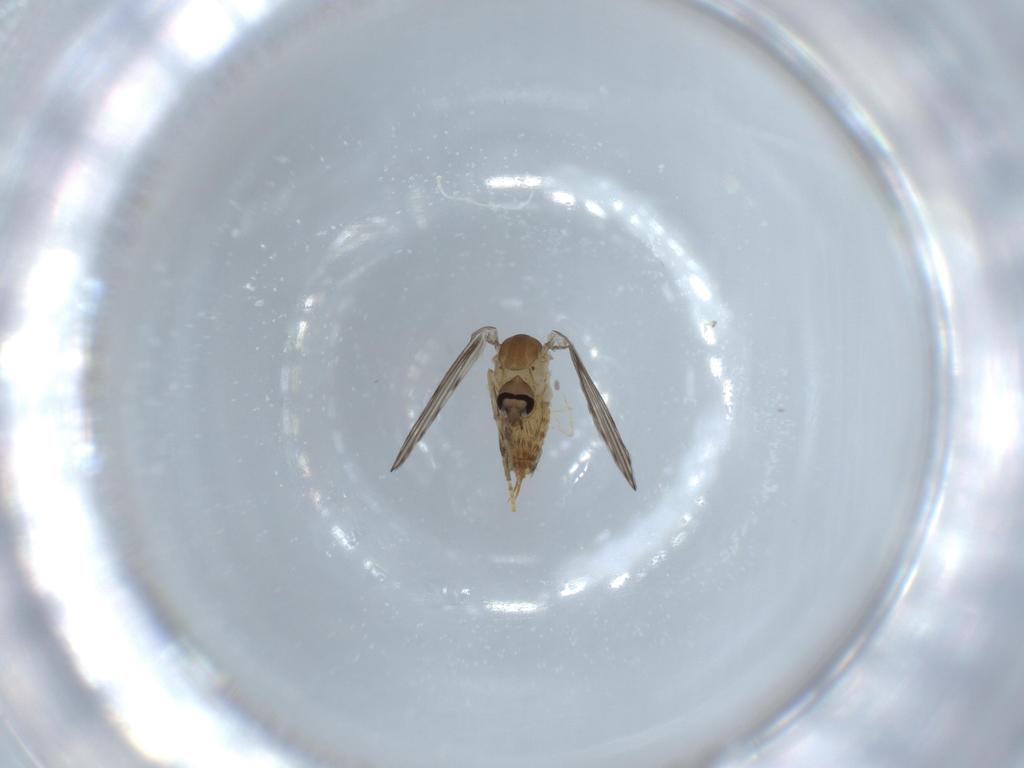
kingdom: Animalia
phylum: Arthropoda
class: Insecta
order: Diptera
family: Psychodidae
